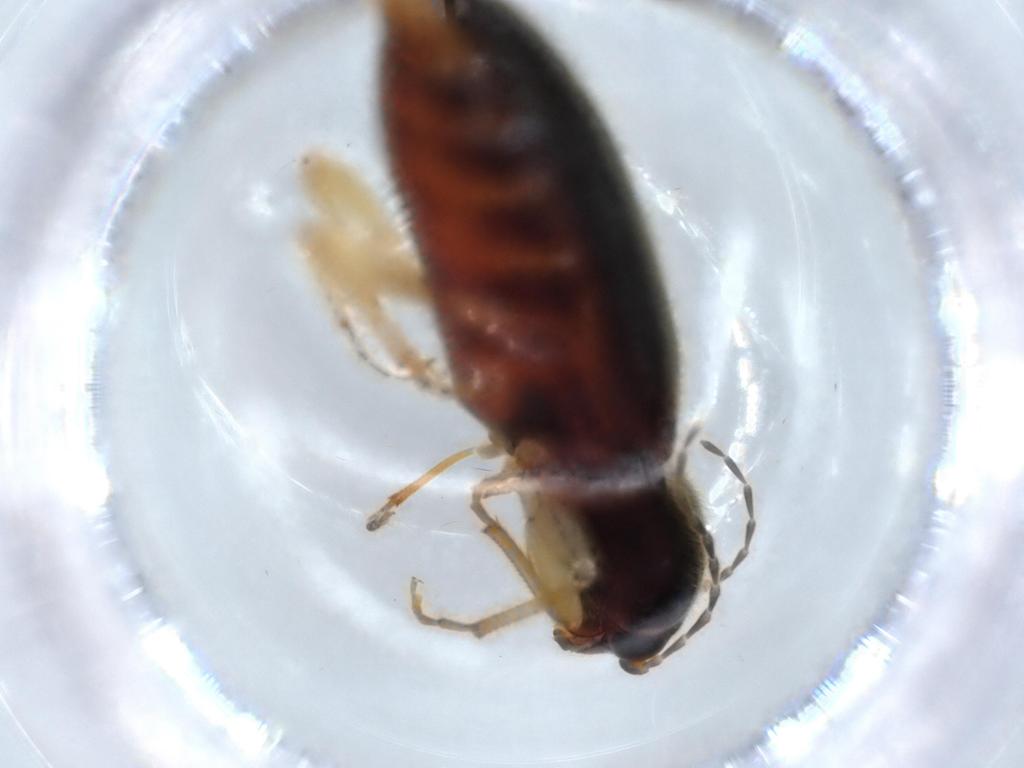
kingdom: Animalia
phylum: Arthropoda
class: Insecta
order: Coleoptera
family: Elateridae
